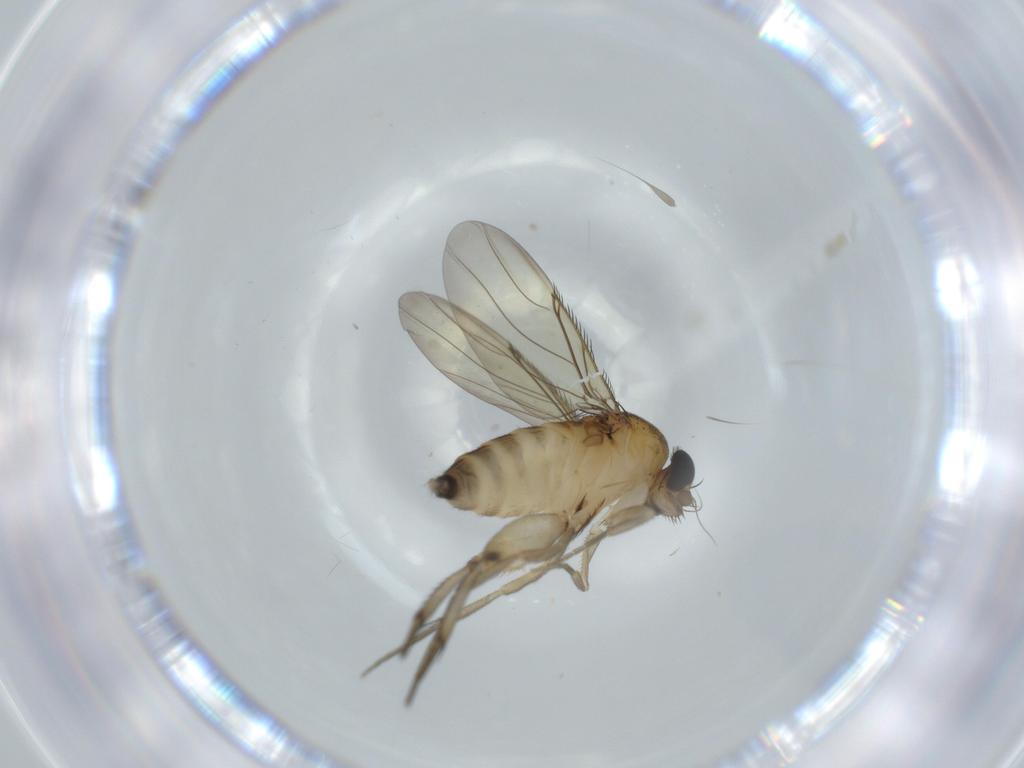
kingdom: Animalia
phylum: Arthropoda
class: Insecta
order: Diptera
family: Phoridae
